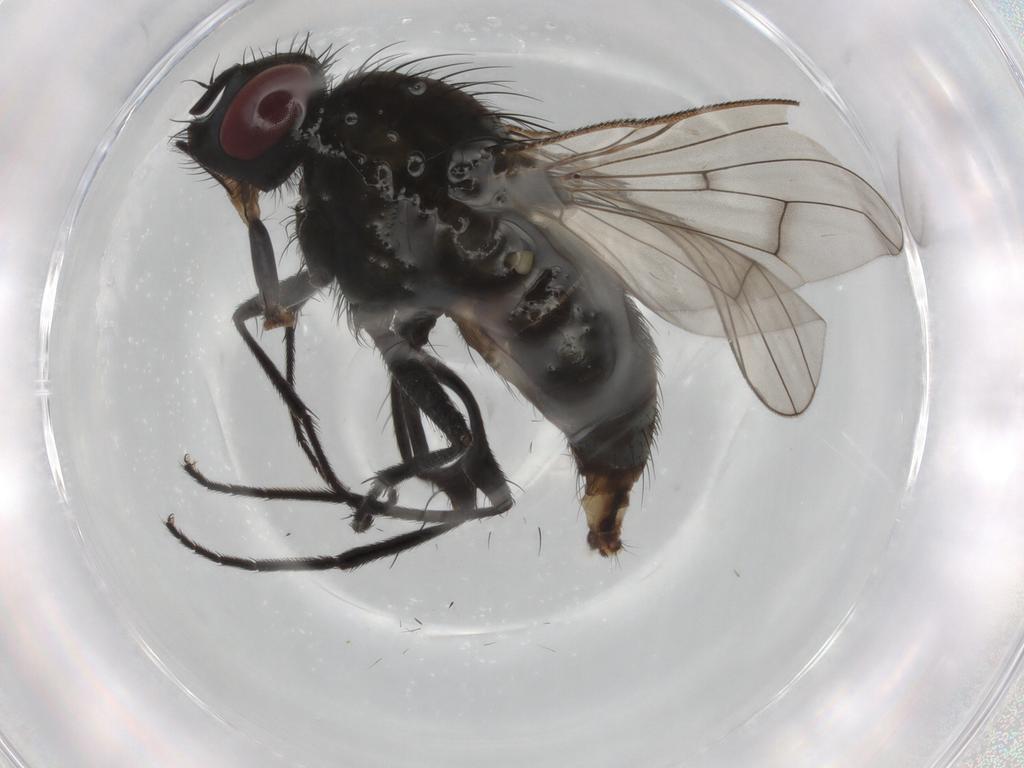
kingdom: Animalia
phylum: Arthropoda
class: Insecta
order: Diptera
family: Muscidae
